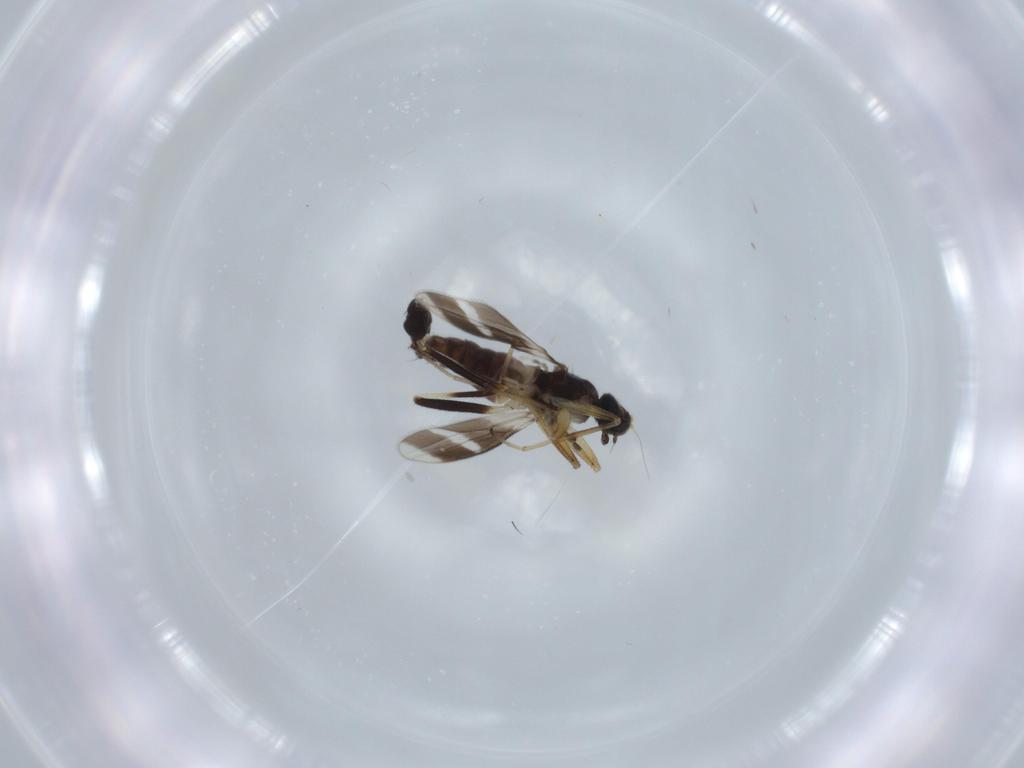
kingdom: Animalia
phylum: Arthropoda
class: Insecta
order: Diptera
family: Hybotidae
